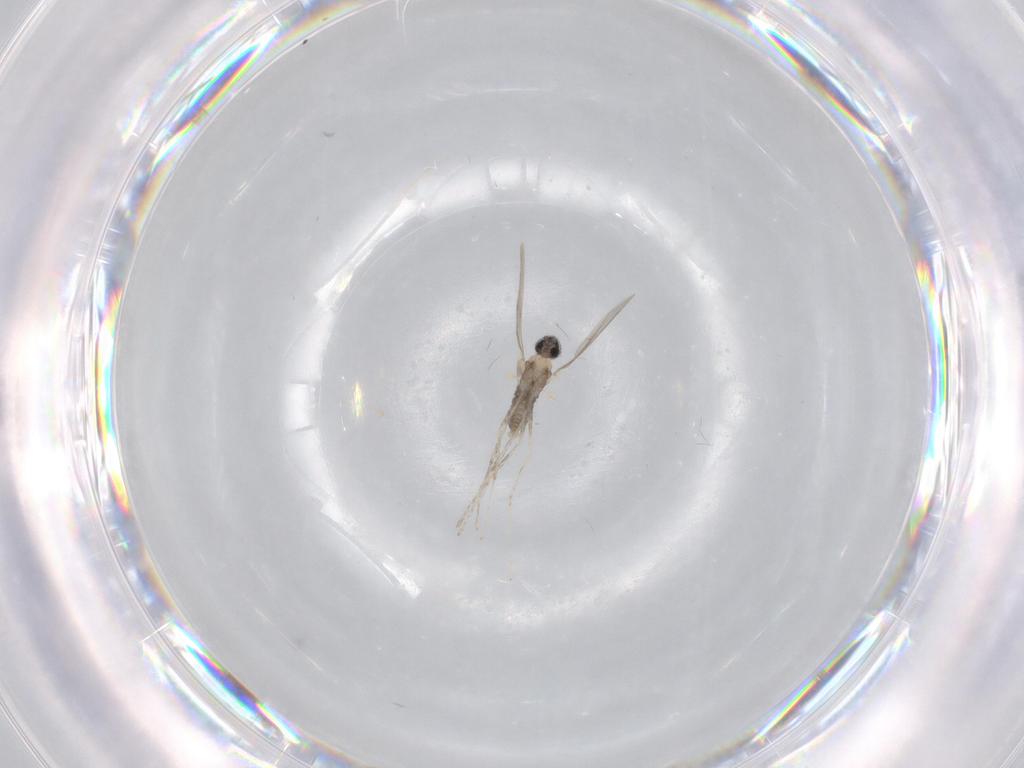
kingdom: Animalia
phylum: Arthropoda
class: Insecta
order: Diptera
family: Cecidomyiidae
